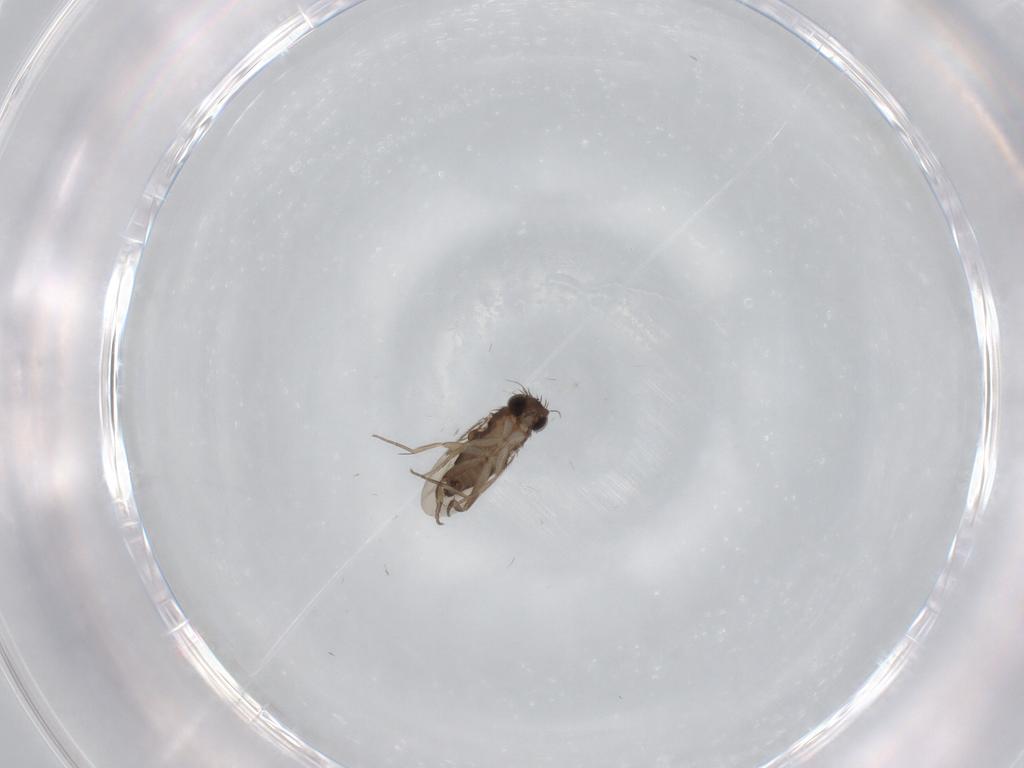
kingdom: Animalia
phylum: Arthropoda
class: Insecta
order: Diptera
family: Phoridae
